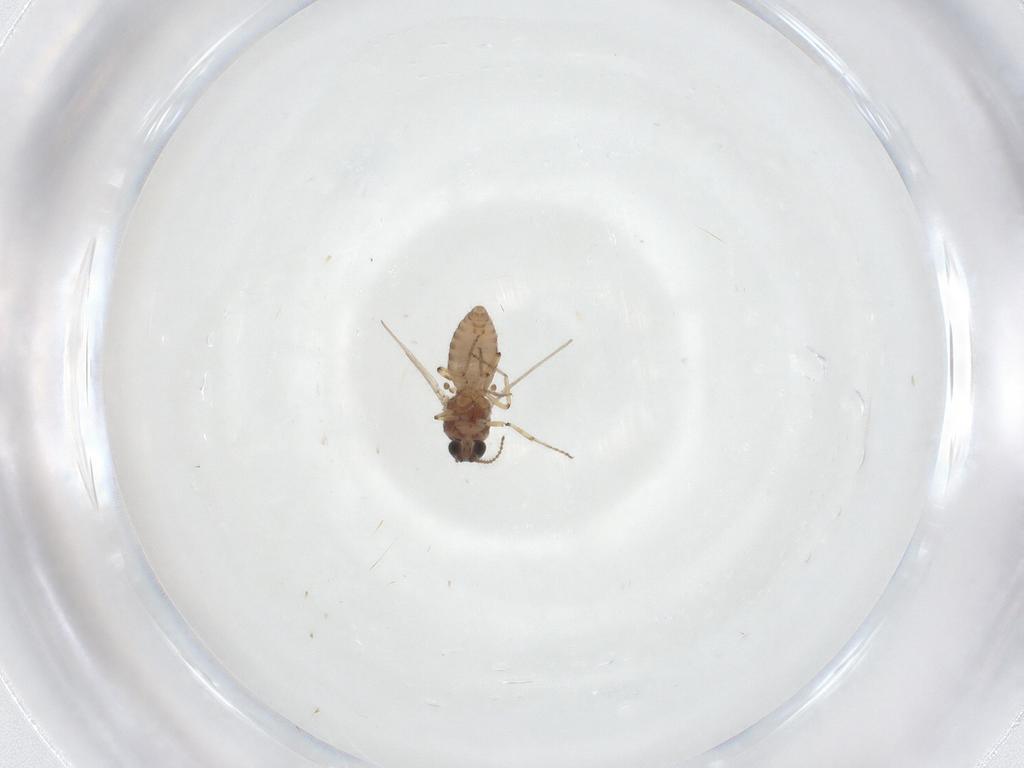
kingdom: Animalia
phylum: Arthropoda
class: Insecta
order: Diptera
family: Ceratopogonidae
